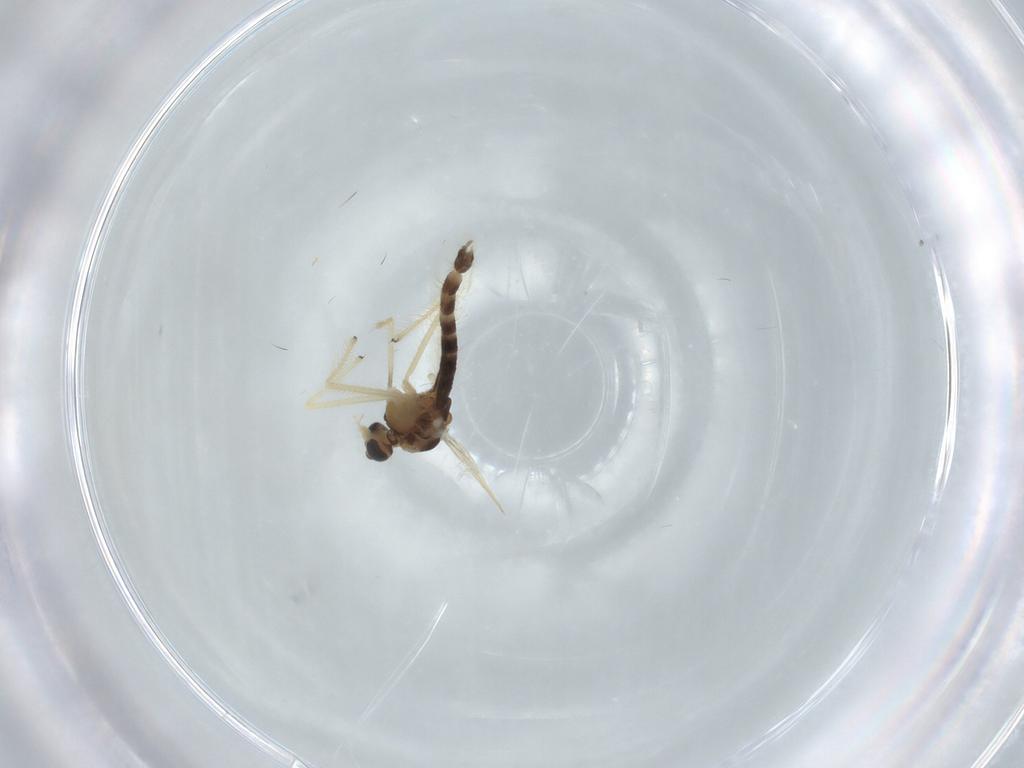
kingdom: Animalia
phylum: Arthropoda
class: Insecta
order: Diptera
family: Chironomidae
